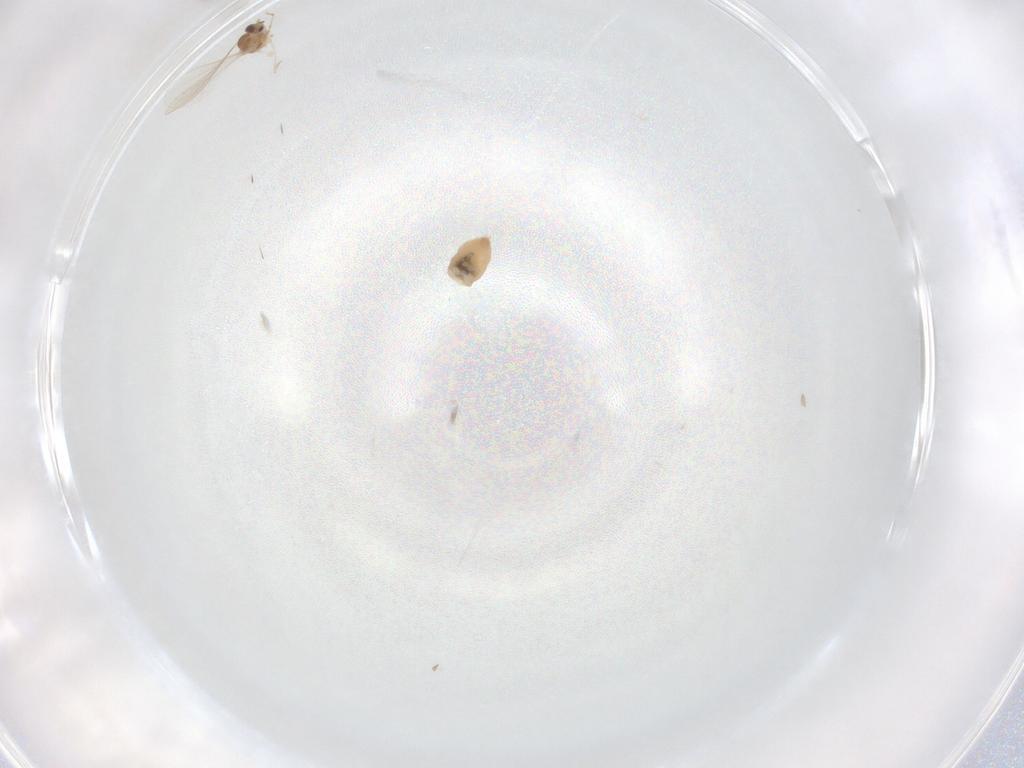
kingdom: Animalia
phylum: Arthropoda
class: Insecta
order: Diptera
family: Cecidomyiidae
